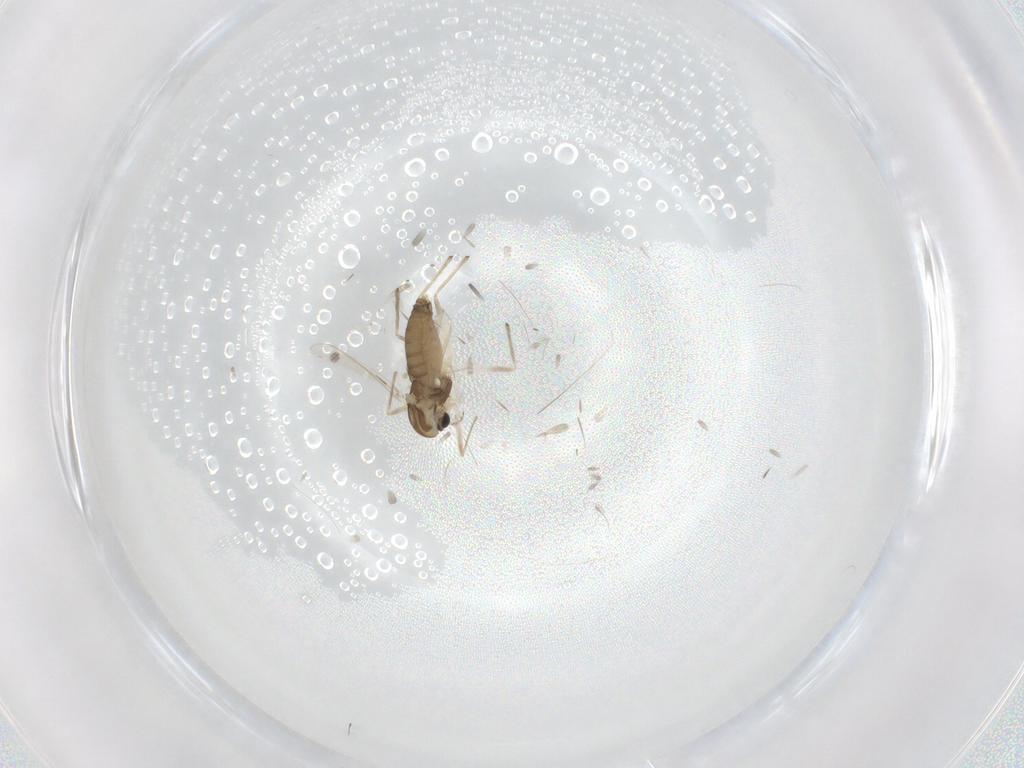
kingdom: Animalia
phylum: Arthropoda
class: Insecta
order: Diptera
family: Chironomidae
